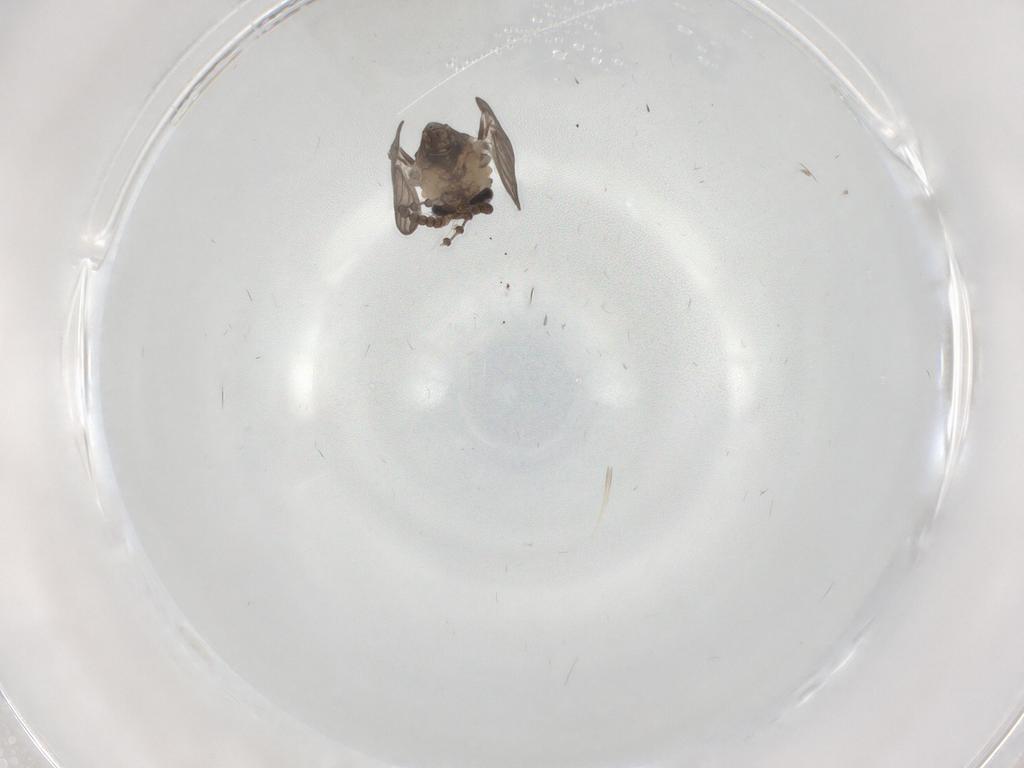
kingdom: Animalia
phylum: Arthropoda
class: Insecta
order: Diptera
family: Psychodidae
